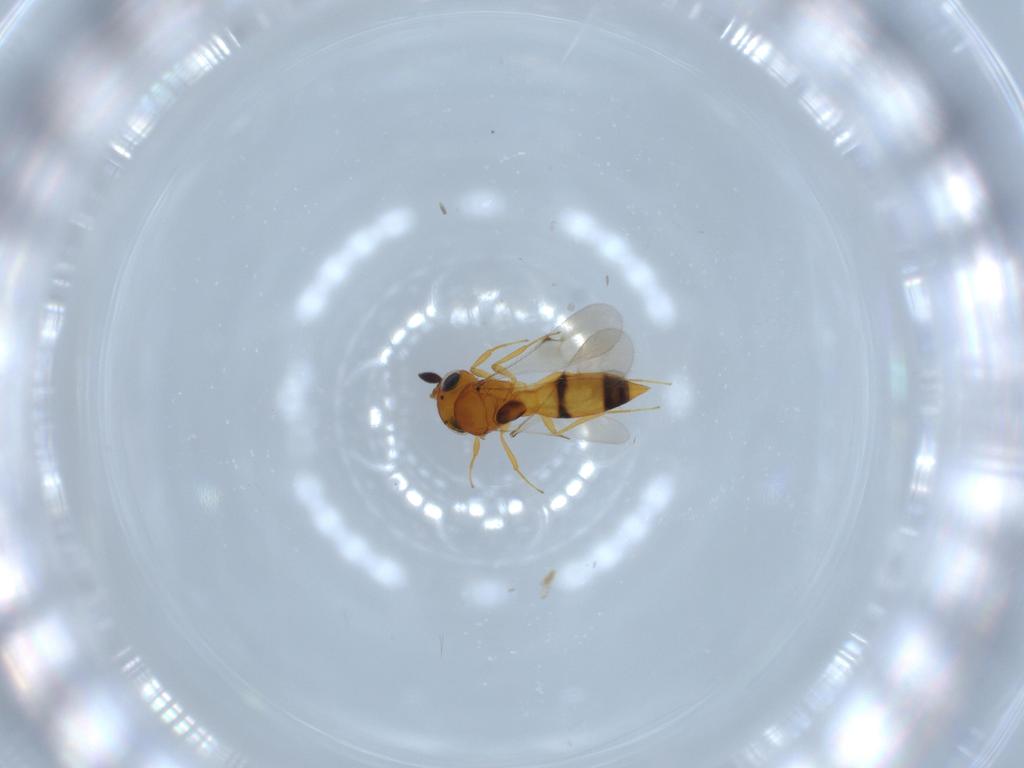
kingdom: Animalia
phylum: Arthropoda
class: Insecta
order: Hymenoptera
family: Scelionidae
